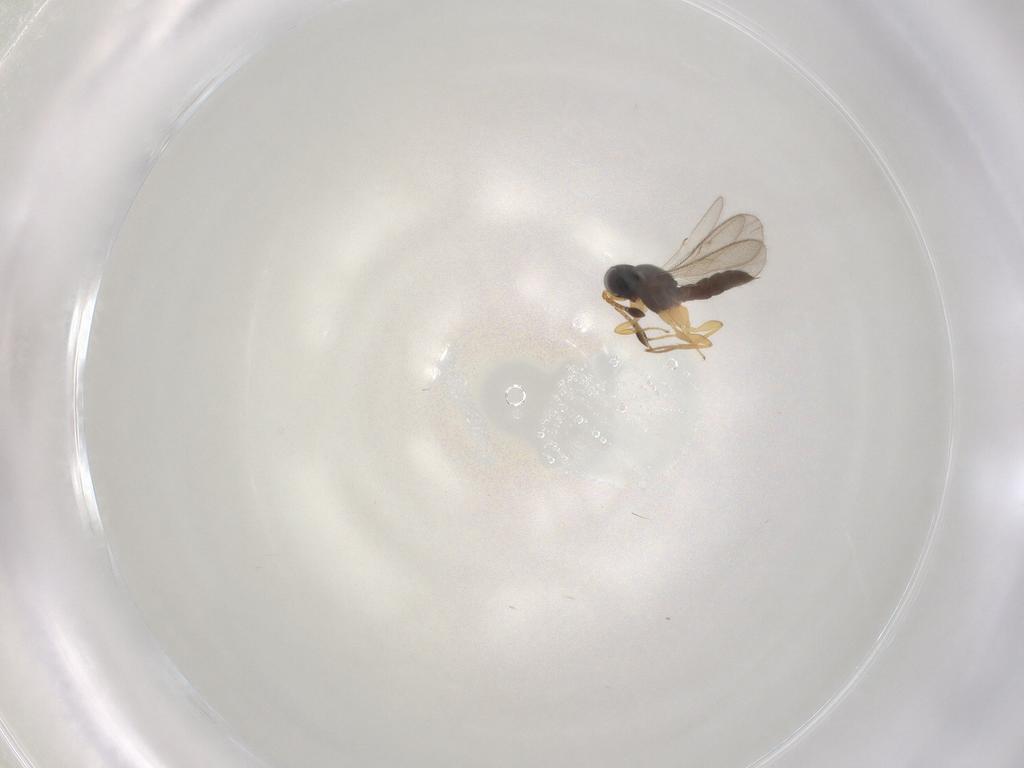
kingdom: Animalia
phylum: Arthropoda
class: Insecta
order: Hymenoptera
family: Scelionidae
